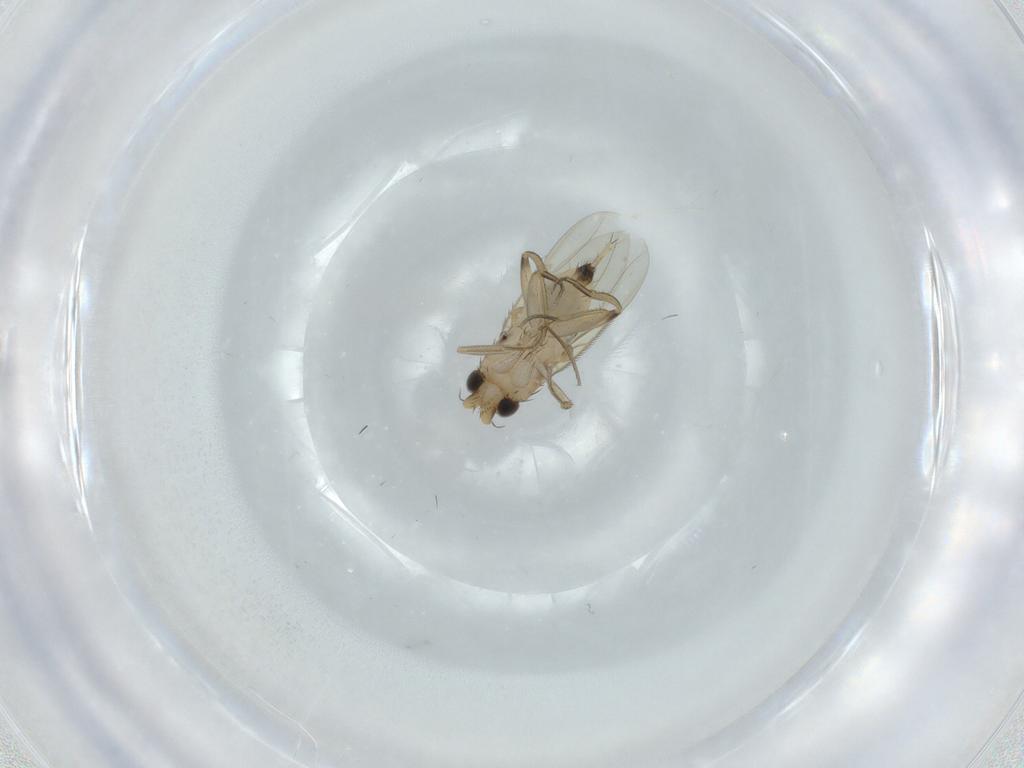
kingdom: Animalia
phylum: Arthropoda
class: Insecta
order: Diptera
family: Phoridae
